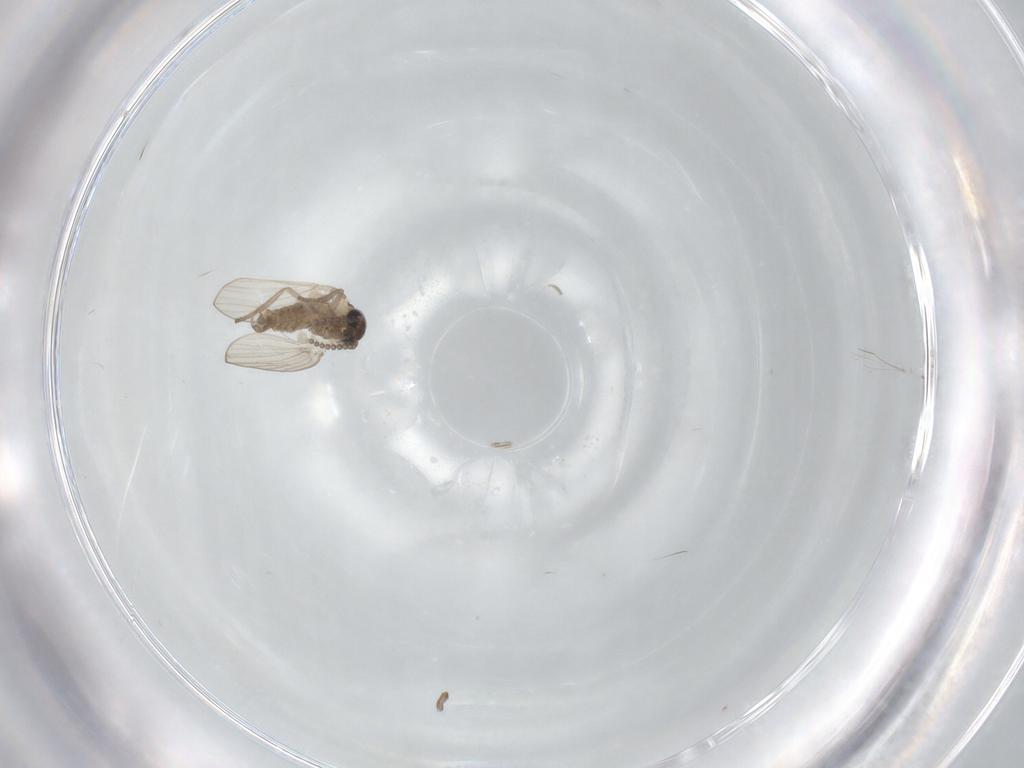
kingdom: Animalia
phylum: Arthropoda
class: Insecta
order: Diptera
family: Psychodidae
